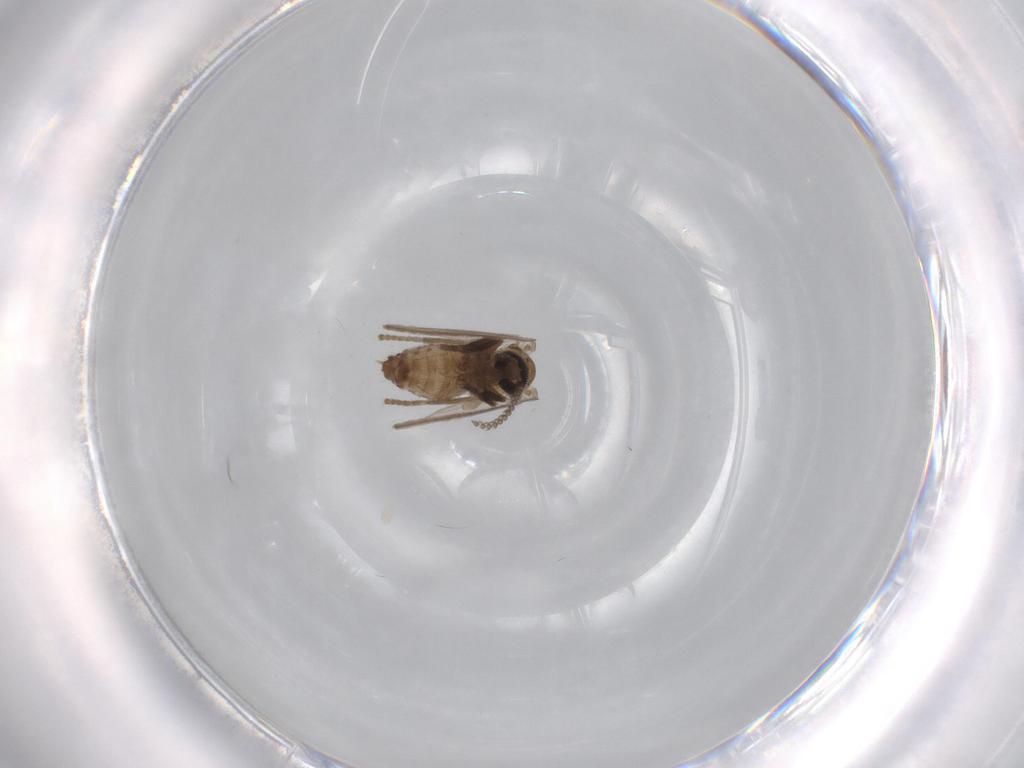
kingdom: Animalia
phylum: Arthropoda
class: Insecta
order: Diptera
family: Psychodidae
